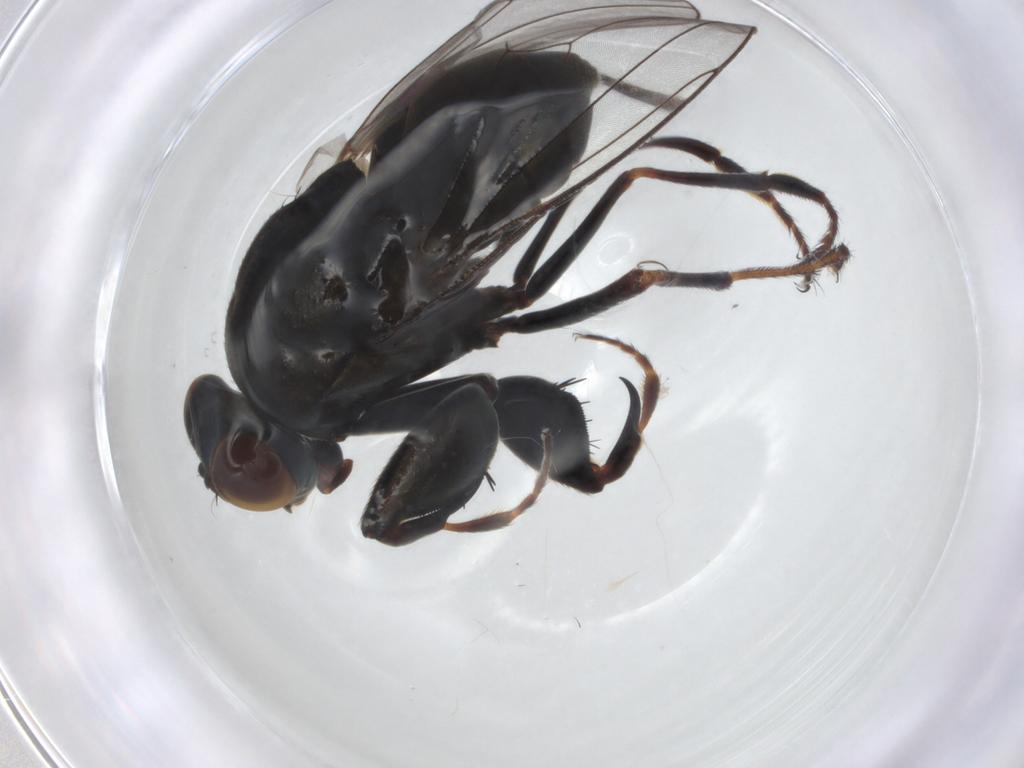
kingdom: Animalia
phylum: Arthropoda
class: Insecta
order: Diptera
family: Ephydridae
